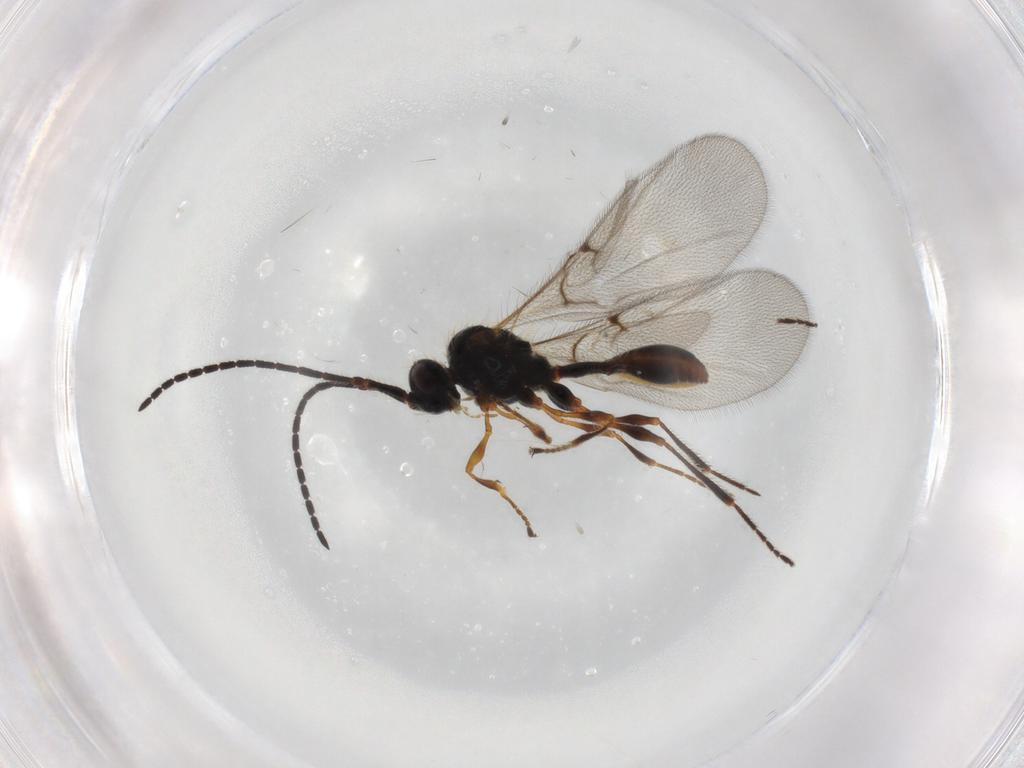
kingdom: Animalia
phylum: Arthropoda
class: Insecta
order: Hymenoptera
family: Diapriidae
